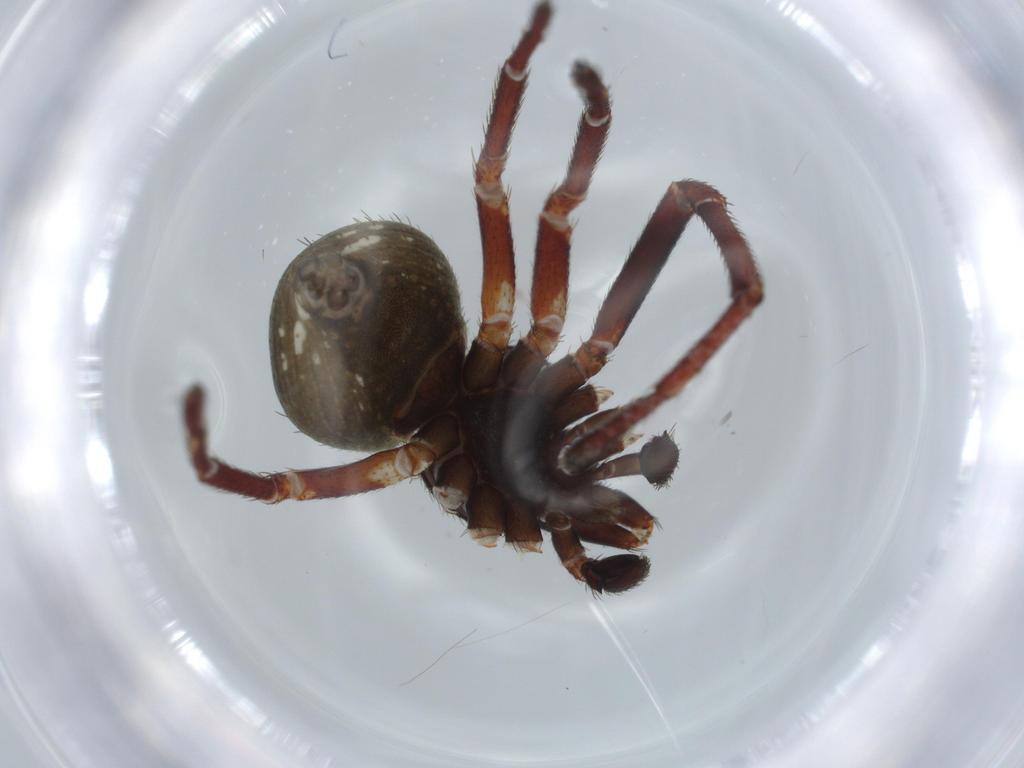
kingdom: Animalia
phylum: Arthropoda
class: Arachnida
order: Araneae
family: Thomisidae
